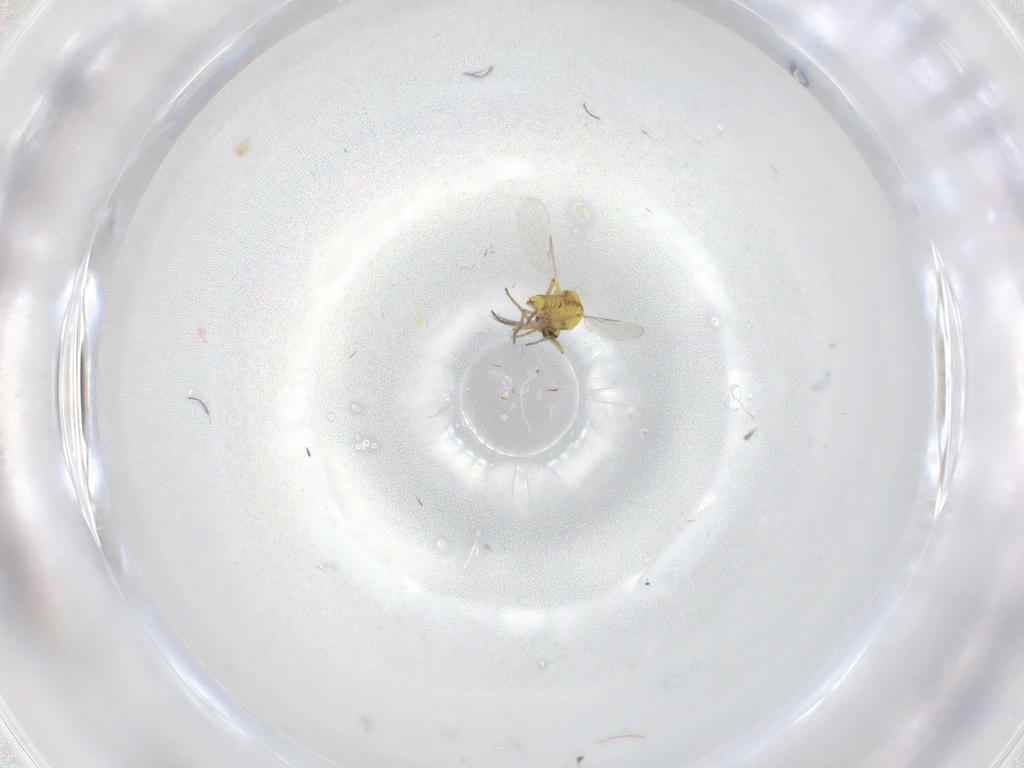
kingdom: Animalia
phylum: Arthropoda
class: Insecta
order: Diptera
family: Ceratopogonidae
